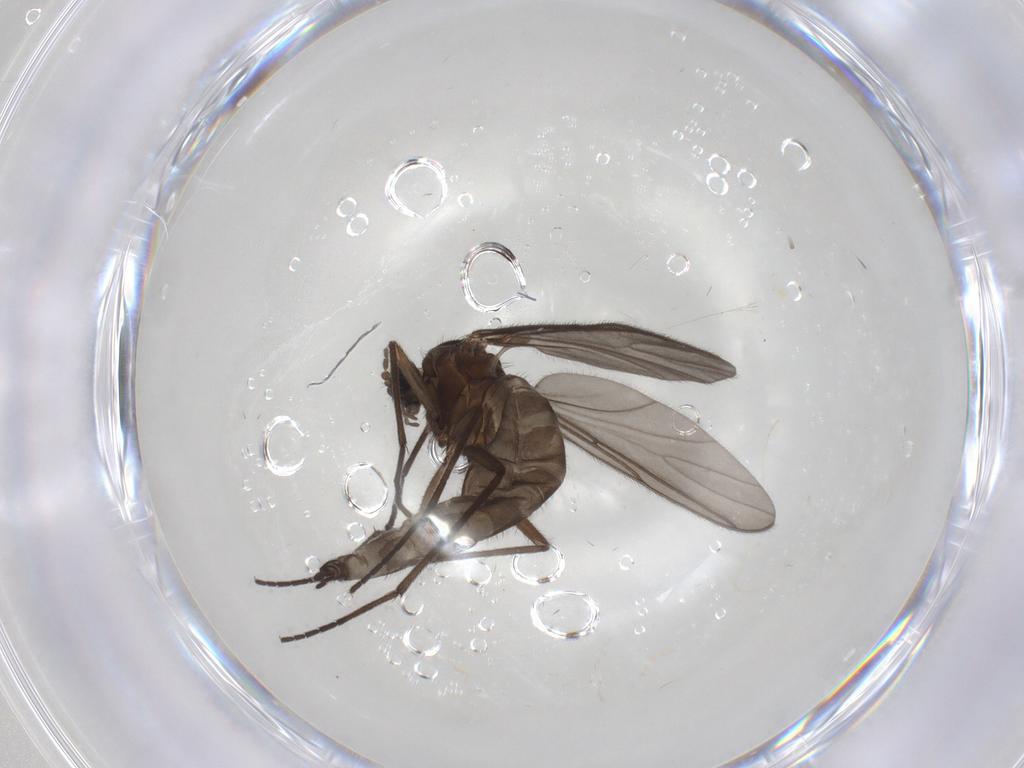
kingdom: Animalia
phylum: Arthropoda
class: Insecta
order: Diptera
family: Sciaridae
